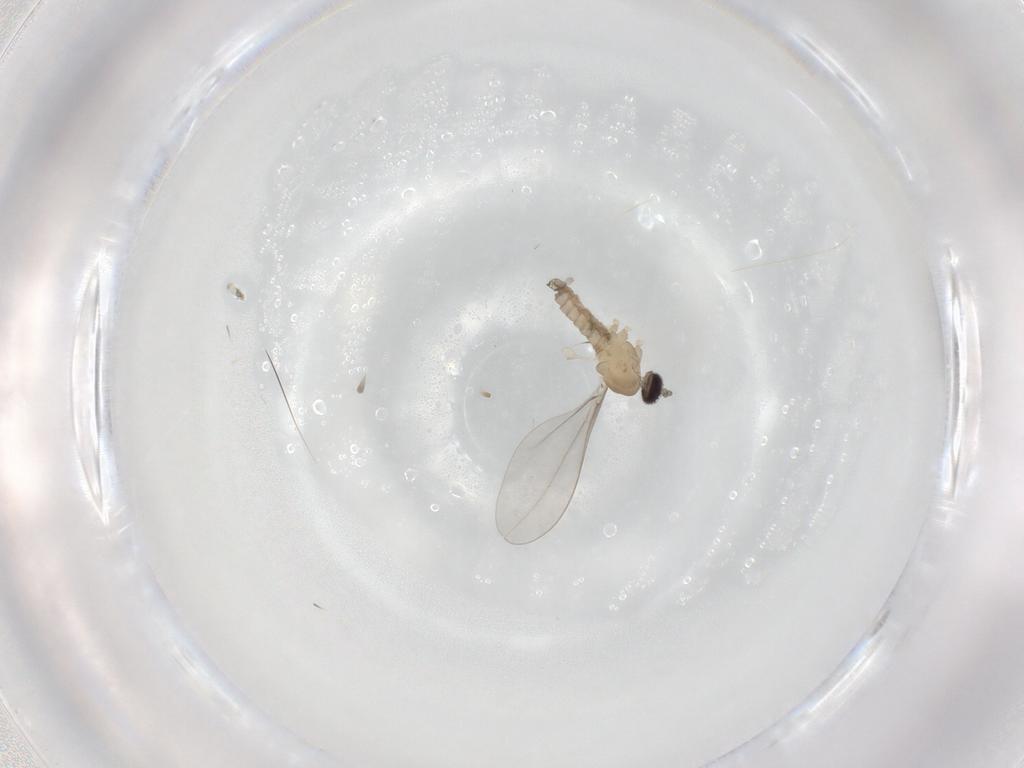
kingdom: Animalia
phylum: Arthropoda
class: Insecta
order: Diptera
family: Cecidomyiidae
